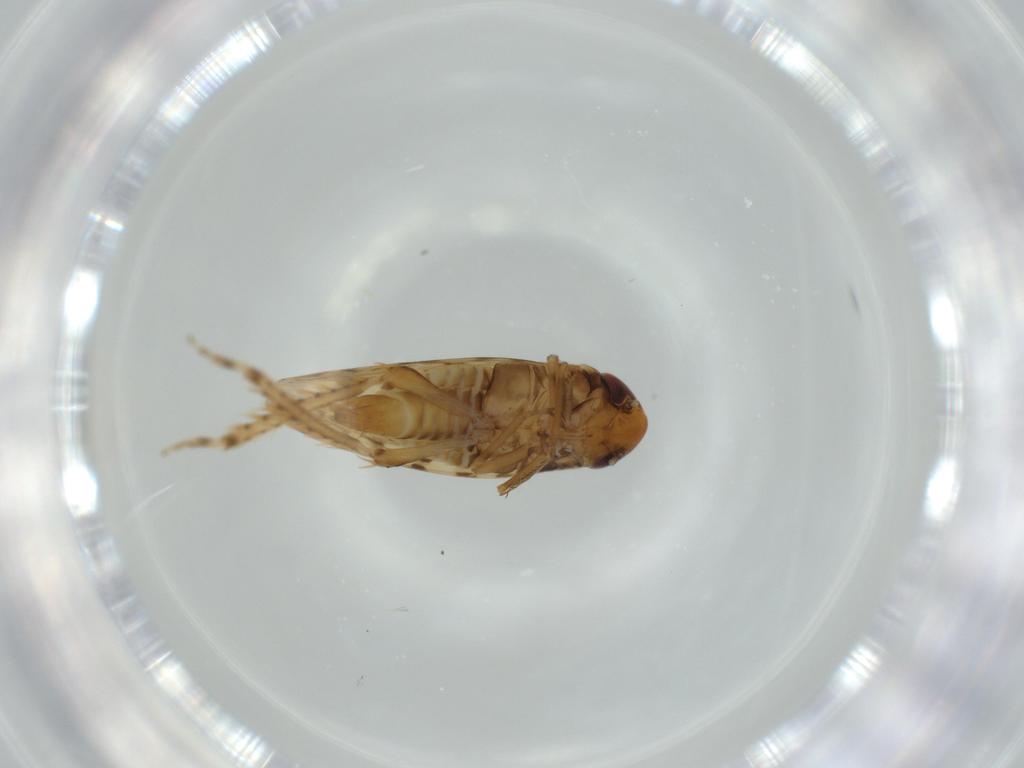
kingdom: Animalia
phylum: Arthropoda
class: Insecta
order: Hemiptera
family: Cicadellidae
